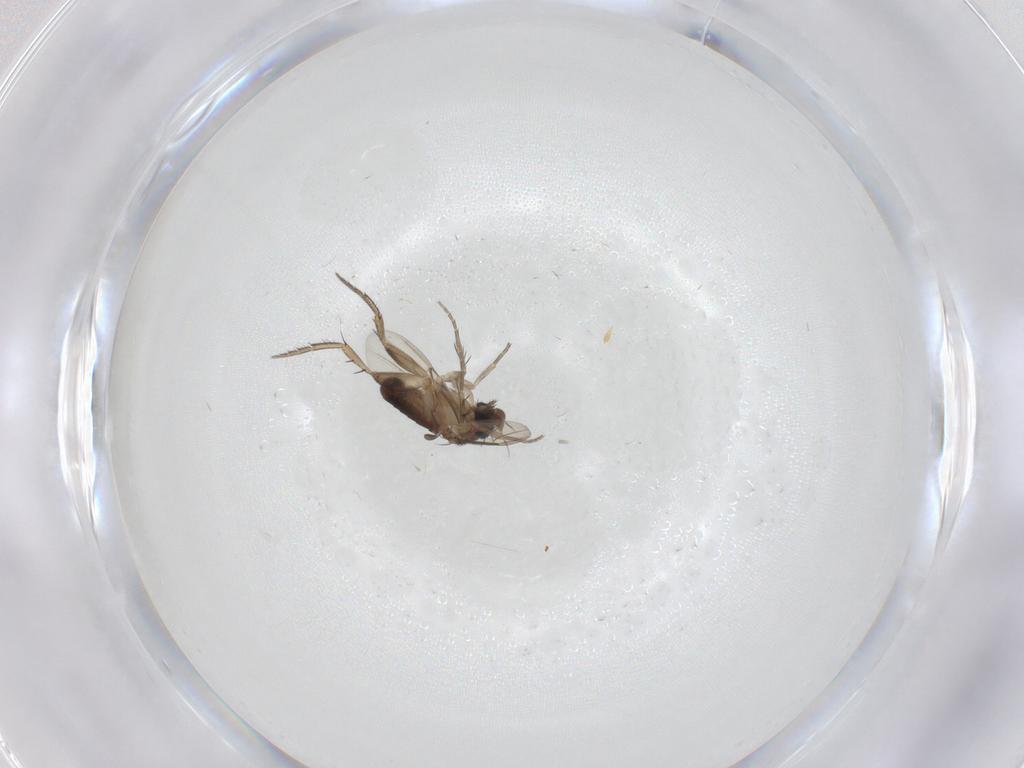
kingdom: Animalia
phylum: Arthropoda
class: Insecta
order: Diptera
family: Phoridae
